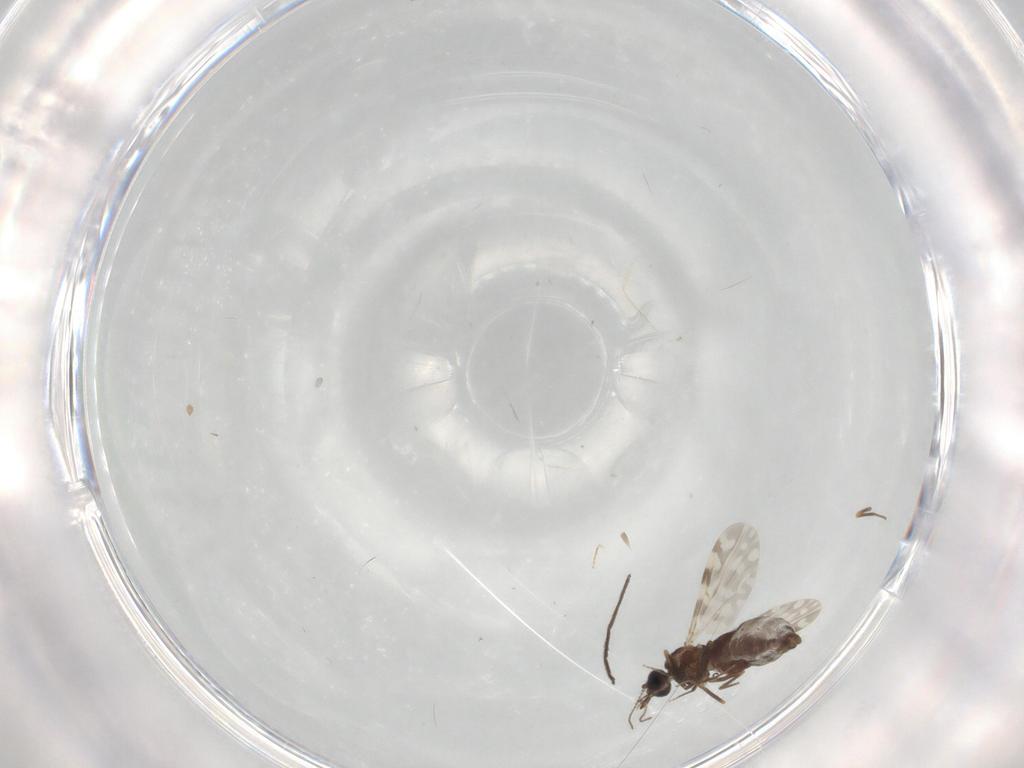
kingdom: Animalia
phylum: Arthropoda
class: Insecta
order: Diptera
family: Ceratopogonidae
